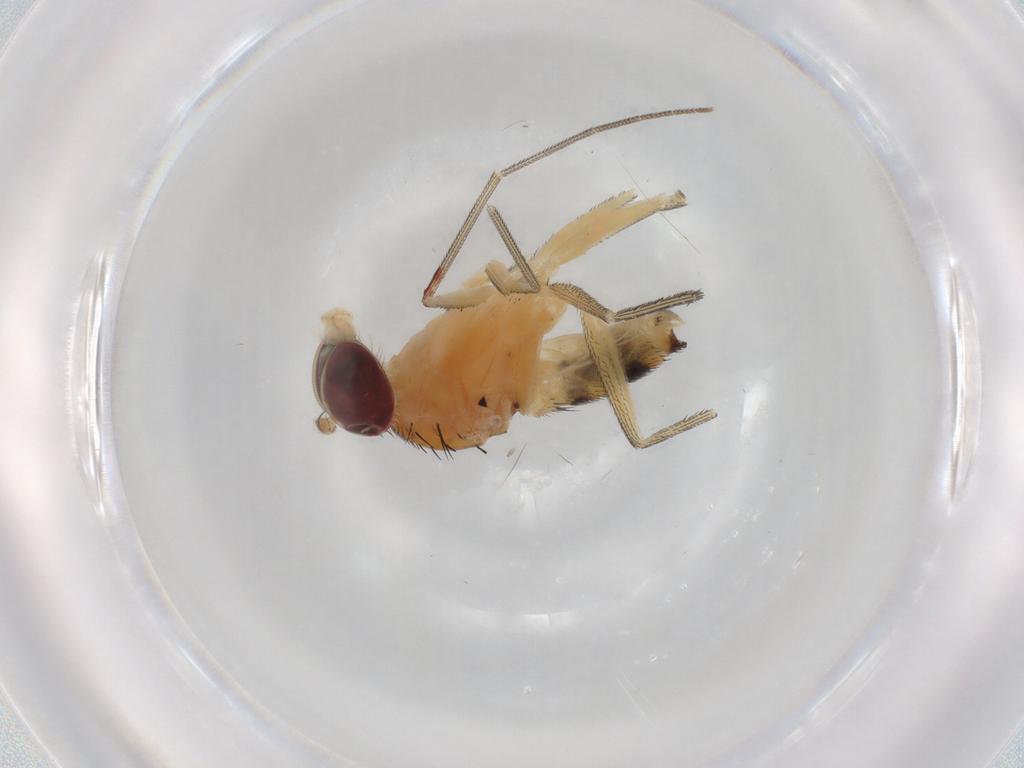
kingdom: Animalia
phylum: Arthropoda
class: Insecta
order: Diptera
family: Dolichopodidae
